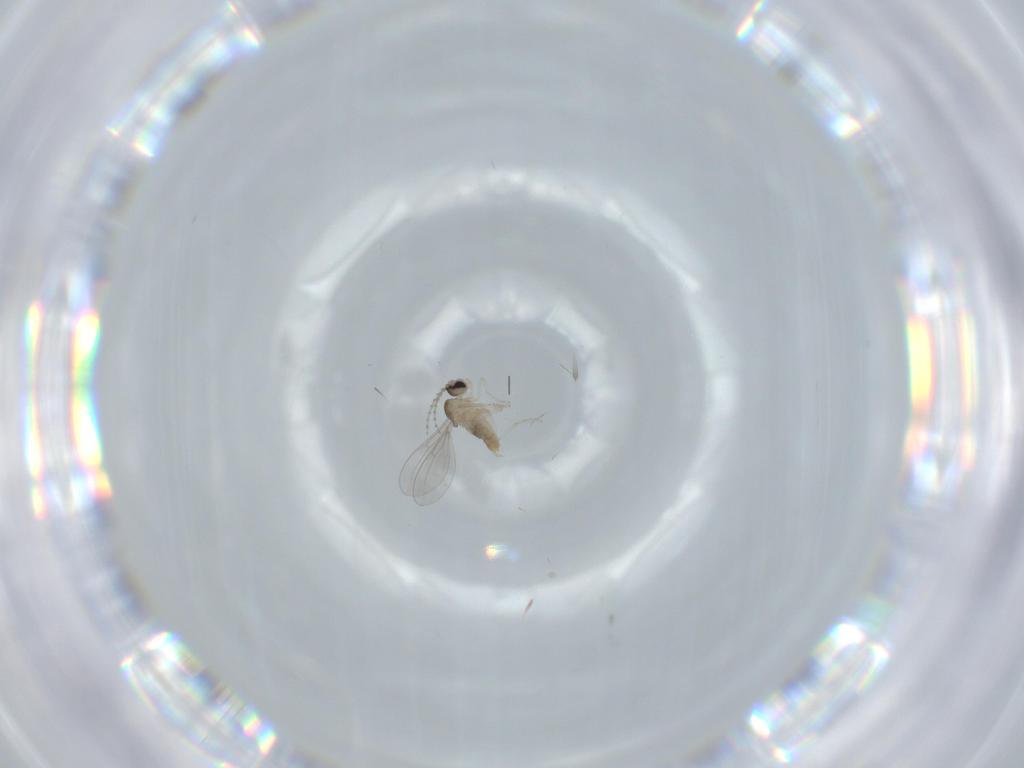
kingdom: Animalia
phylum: Arthropoda
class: Insecta
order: Diptera
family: Cecidomyiidae
